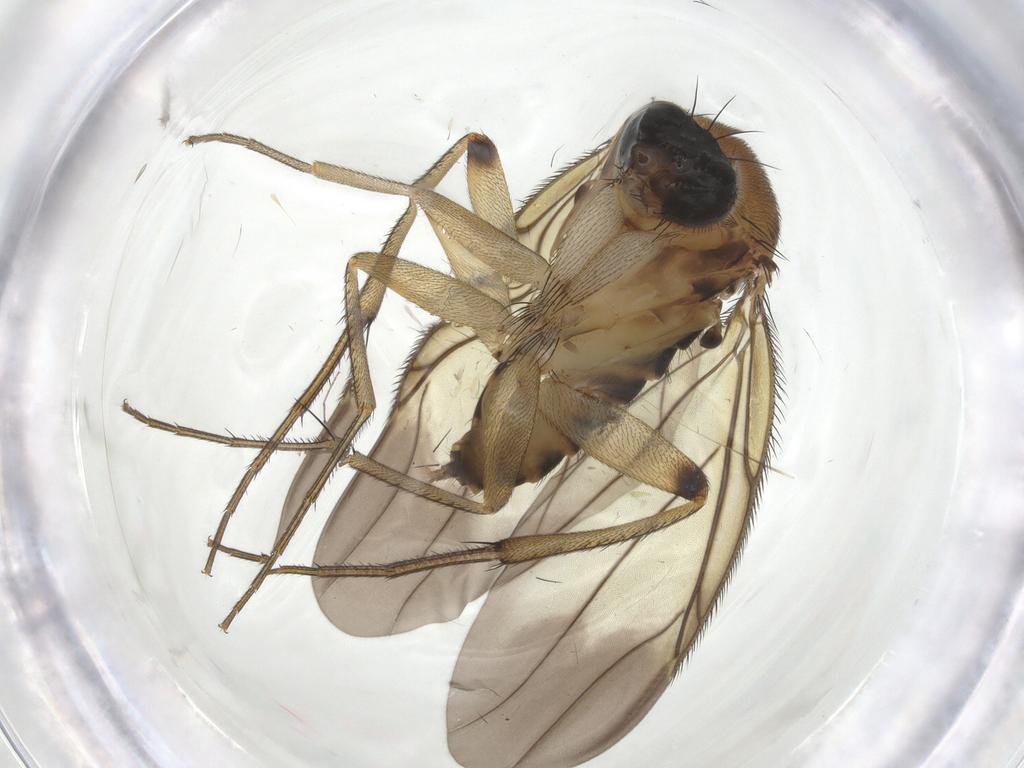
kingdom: Animalia
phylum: Arthropoda
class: Insecta
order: Diptera
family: Phoridae
